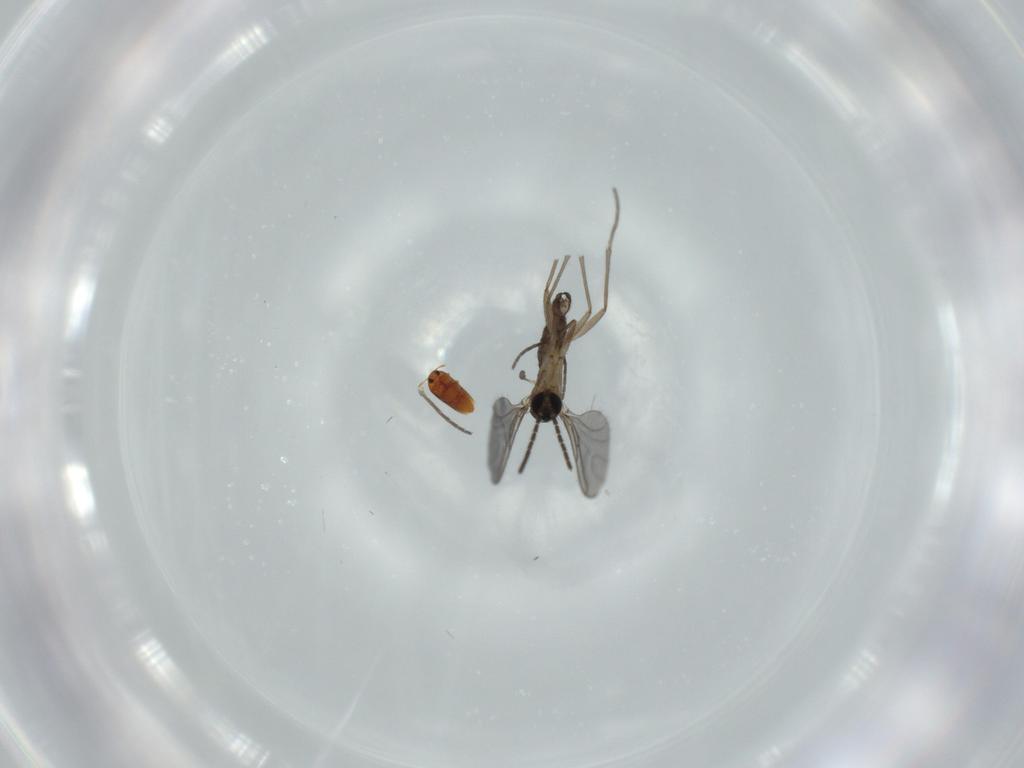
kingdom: Animalia
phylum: Arthropoda
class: Insecta
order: Diptera
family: Sciaridae
